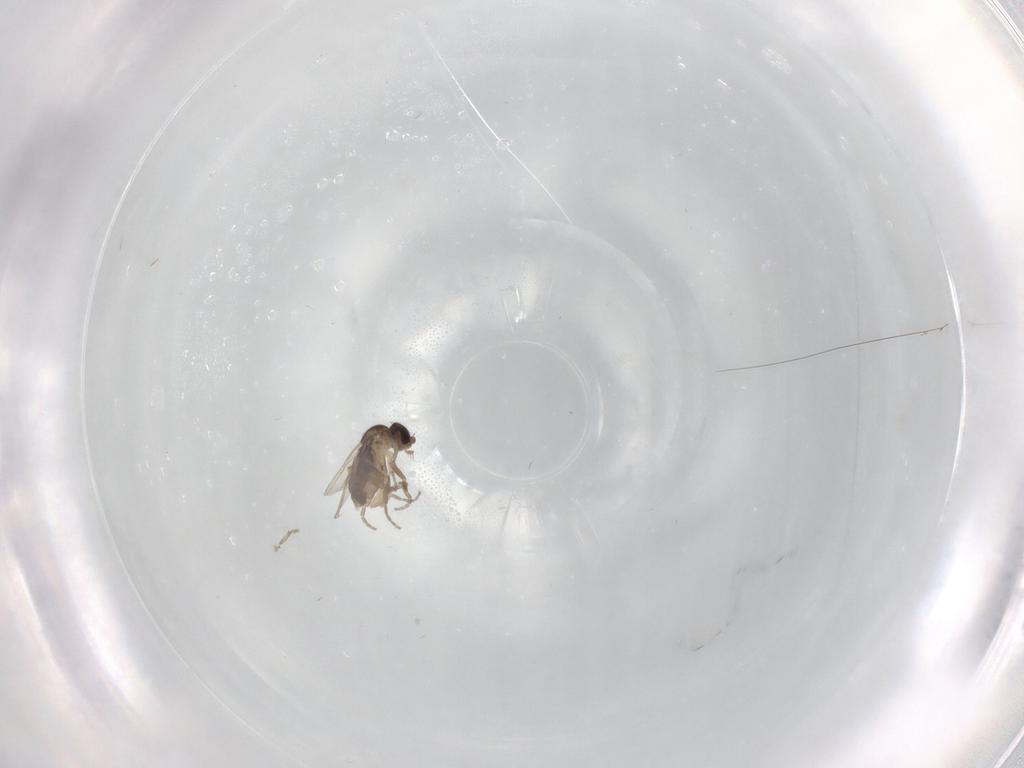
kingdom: Animalia
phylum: Arthropoda
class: Insecta
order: Diptera
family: Phoridae
